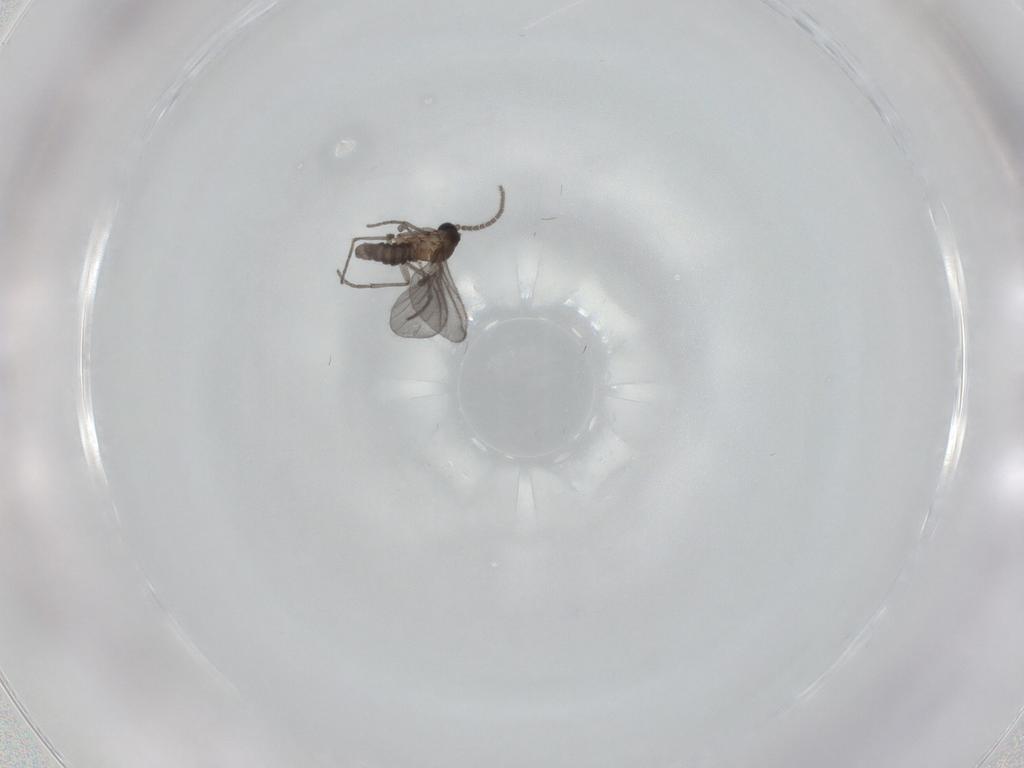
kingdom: Animalia
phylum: Arthropoda
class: Insecta
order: Diptera
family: Sciaridae
